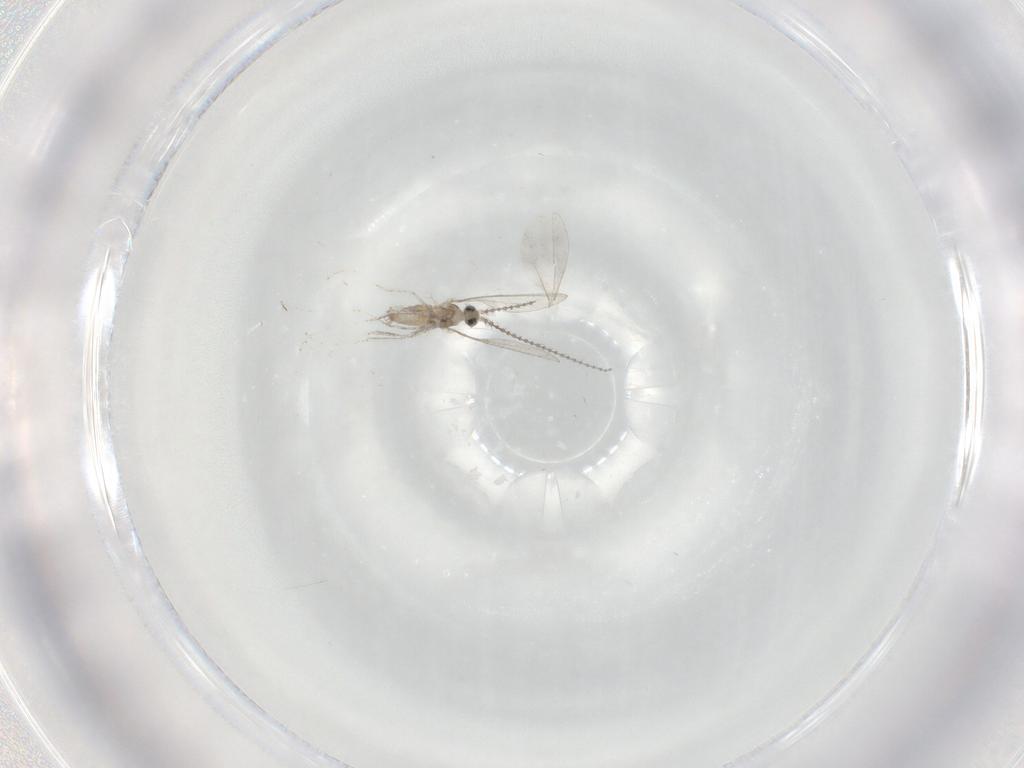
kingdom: Animalia
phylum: Arthropoda
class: Insecta
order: Diptera
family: Cecidomyiidae
